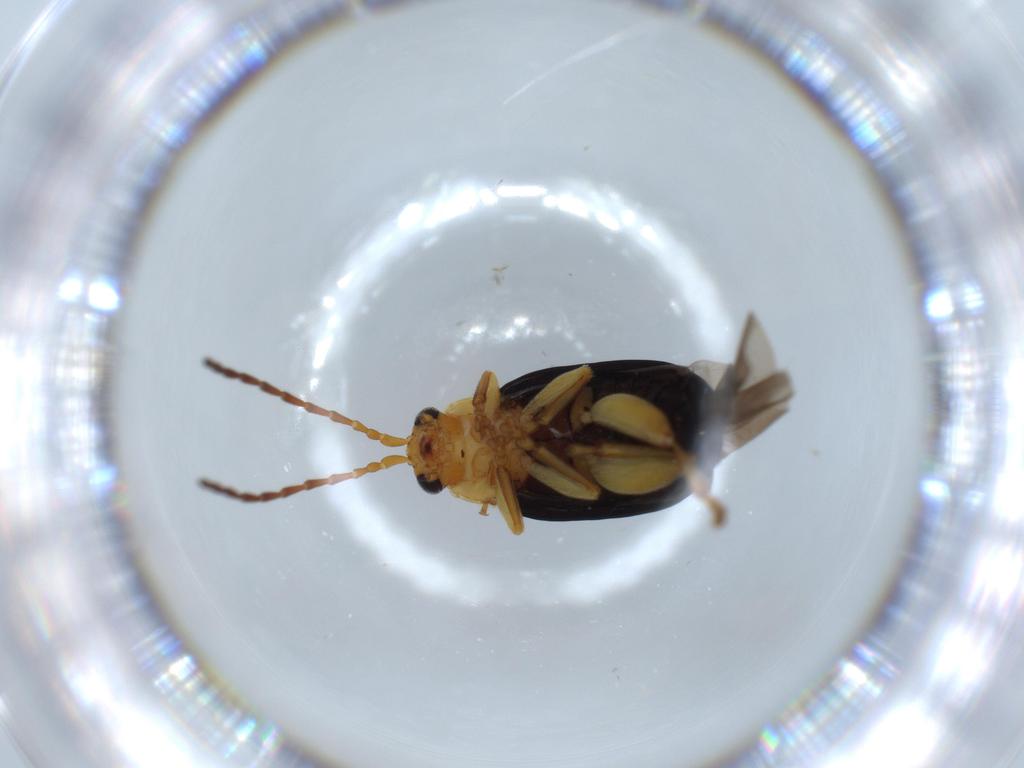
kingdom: Animalia
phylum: Arthropoda
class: Insecta
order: Coleoptera
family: Chrysomelidae
